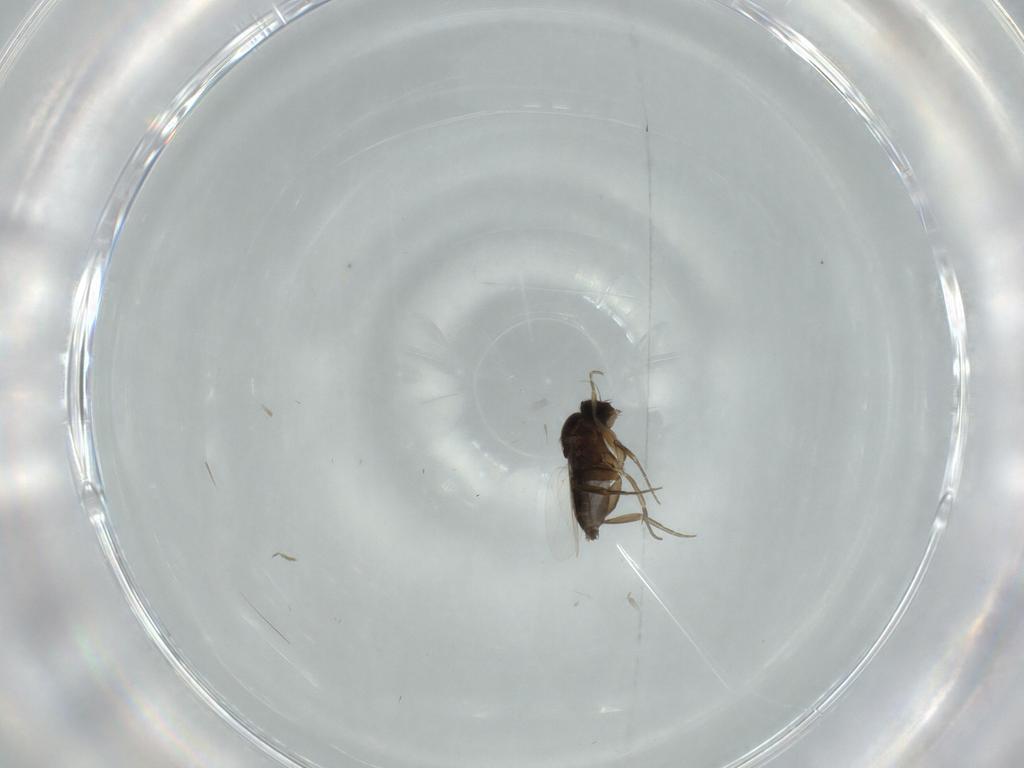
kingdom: Animalia
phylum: Arthropoda
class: Insecta
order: Diptera
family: Phoridae
